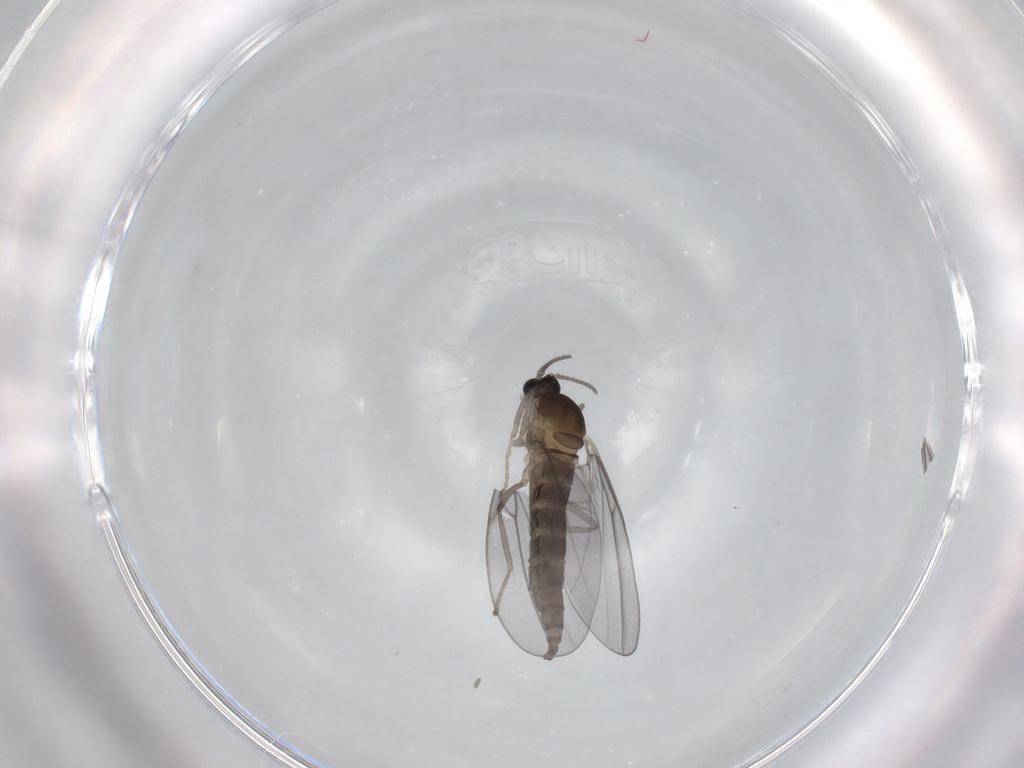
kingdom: Animalia
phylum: Arthropoda
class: Insecta
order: Diptera
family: Cecidomyiidae
